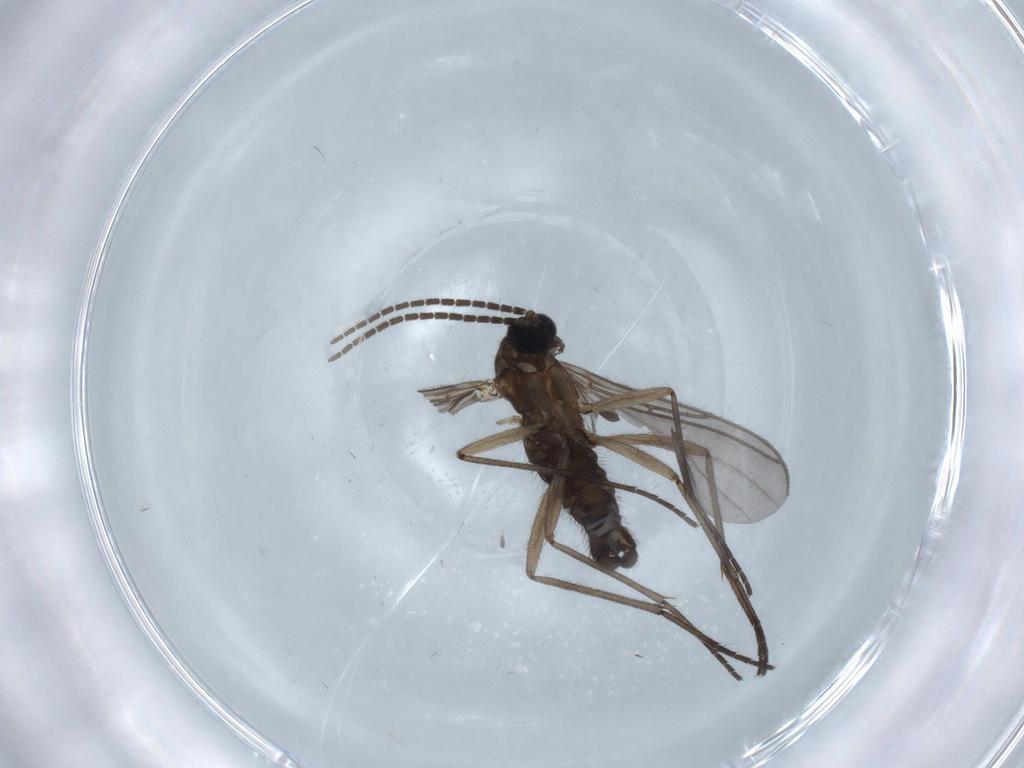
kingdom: Animalia
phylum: Arthropoda
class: Insecta
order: Diptera
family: Sciaridae
